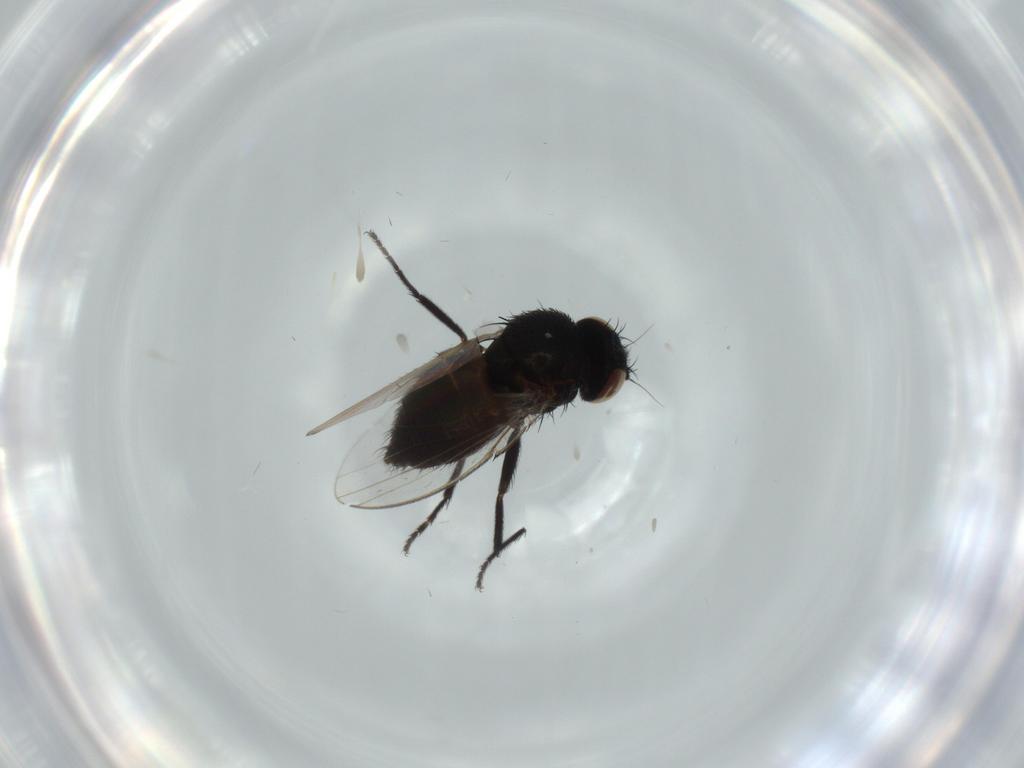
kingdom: Animalia
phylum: Arthropoda
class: Insecta
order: Diptera
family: Milichiidae
